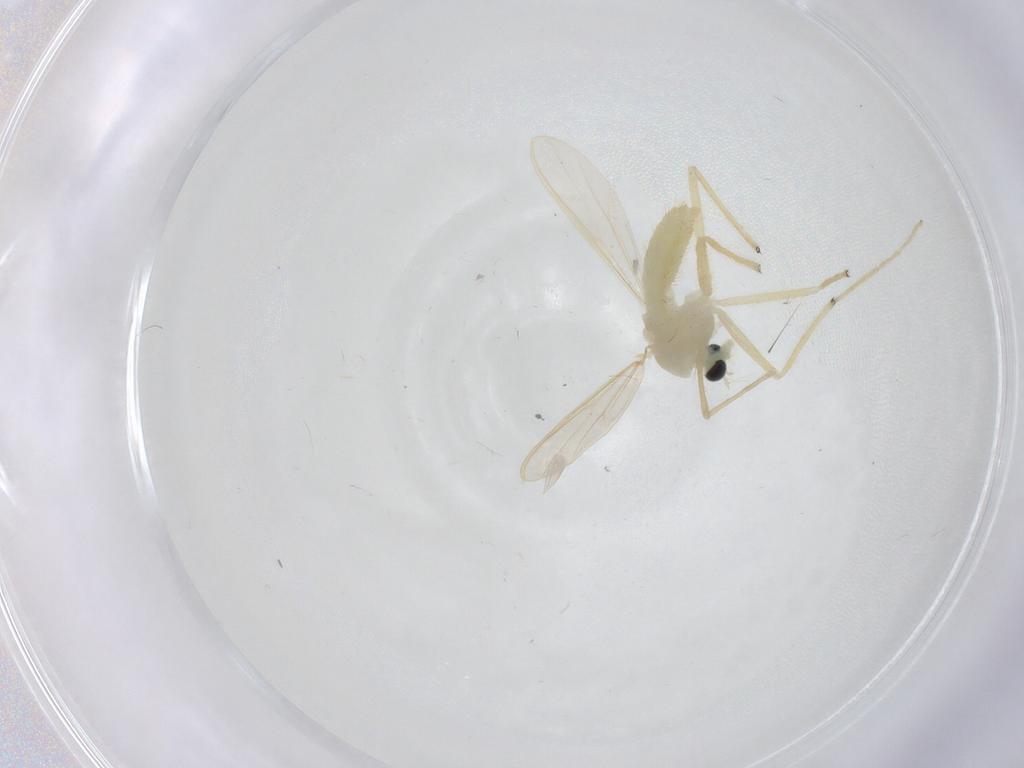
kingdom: Animalia
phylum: Arthropoda
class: Insecta
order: Diptera
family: Chironomidae
